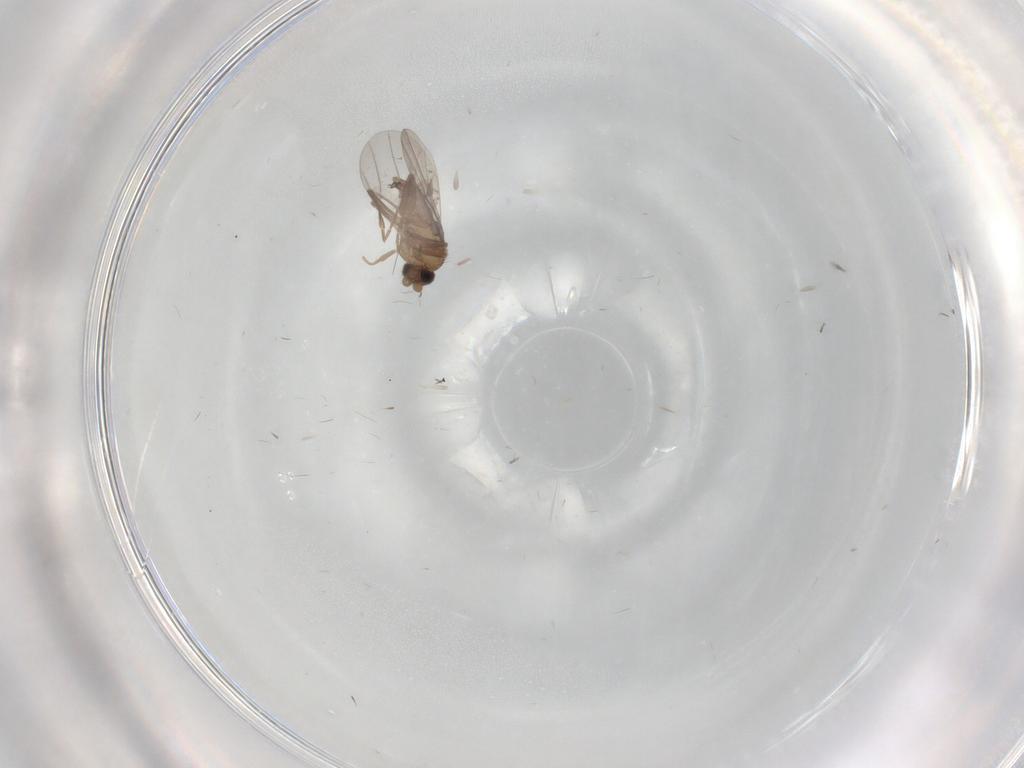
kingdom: Animalia
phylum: Arthropoda
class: Insecta
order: Diptera
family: Cecidomyiidae
